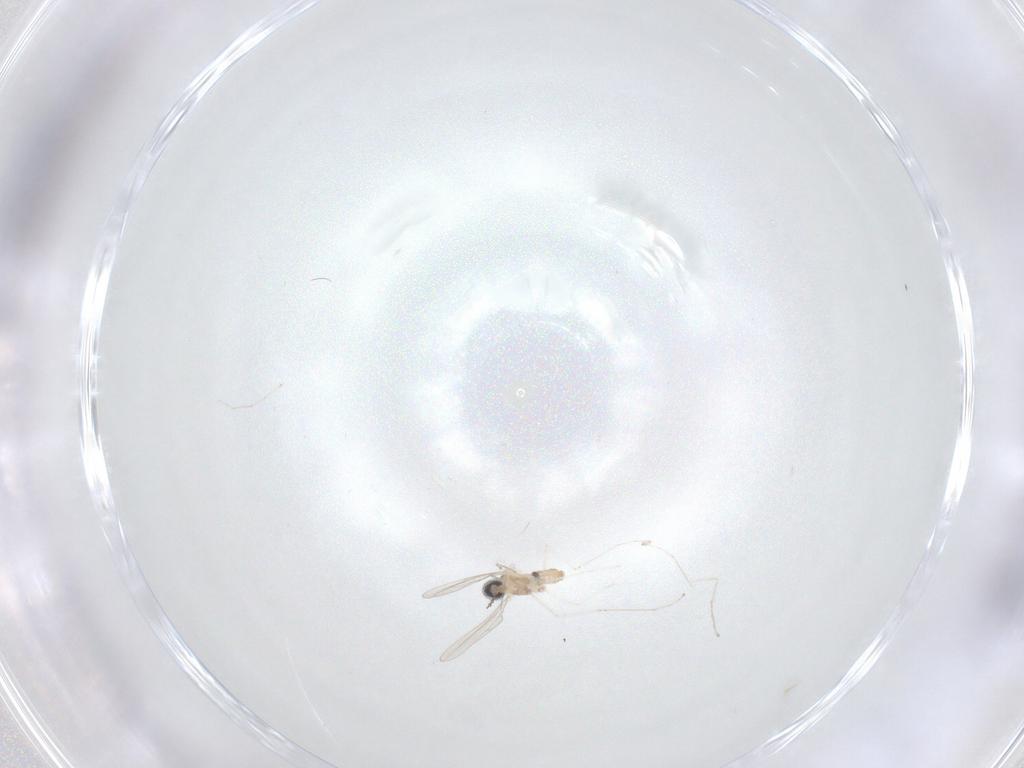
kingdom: Animalia
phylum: Arthropoda
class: Insecta
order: Diptera
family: Cecidomyiidae
